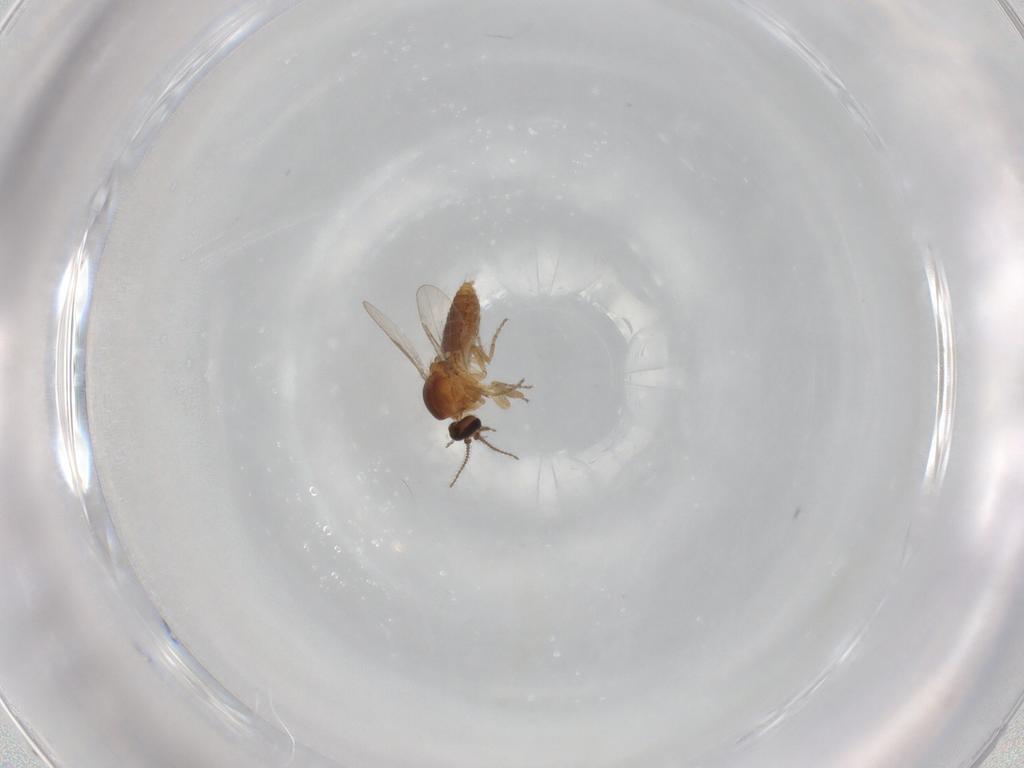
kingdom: Animalia
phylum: Arthropoda
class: Insecta
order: Diptera
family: Ceratopogonidae
